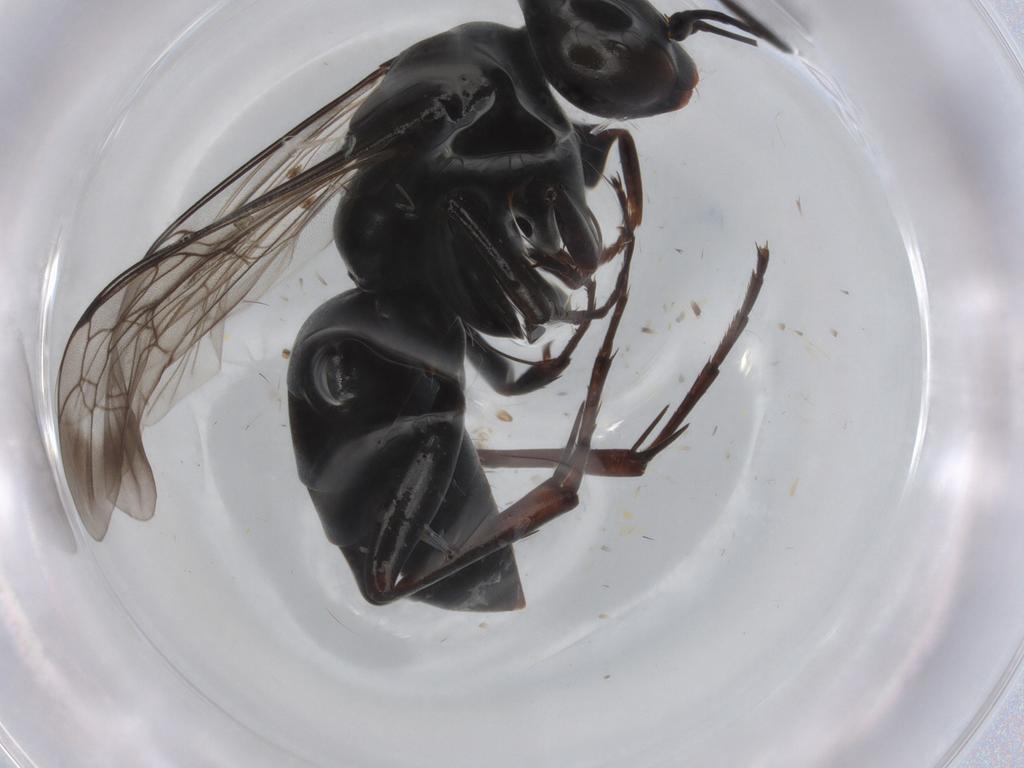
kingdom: Animalia
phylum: Arthropoda
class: Insecta
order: Hymenoptera
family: Pompilidae
